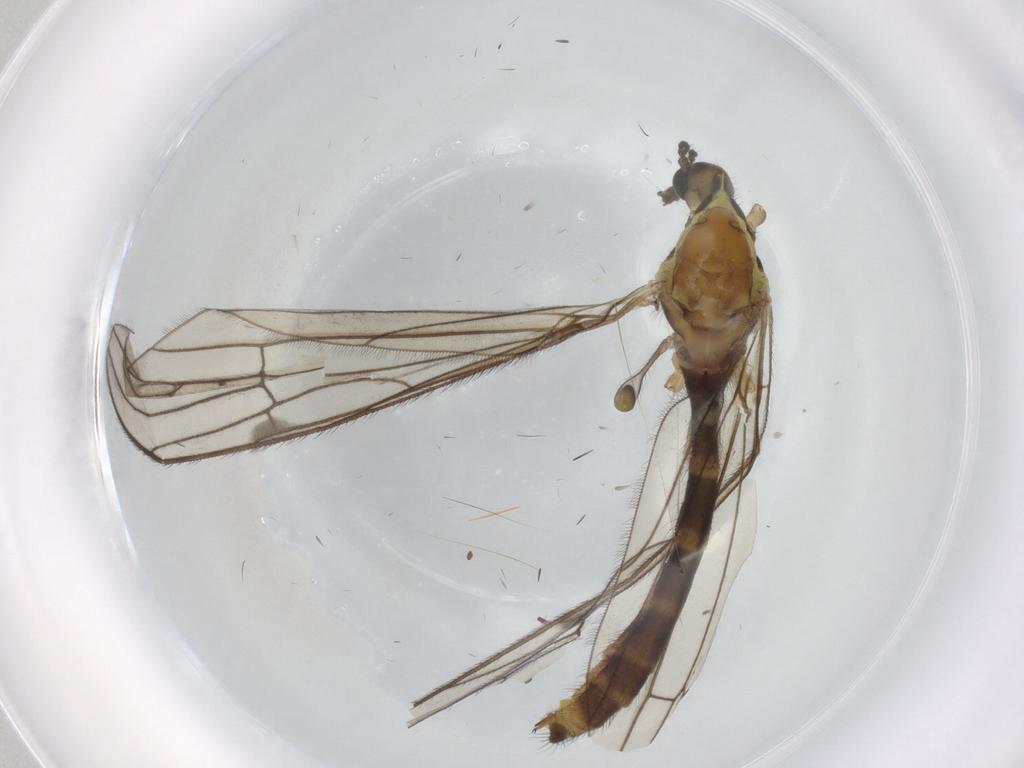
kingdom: Animalia
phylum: Arthropoda
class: Insecta
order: Diptera
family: Limoniidae
